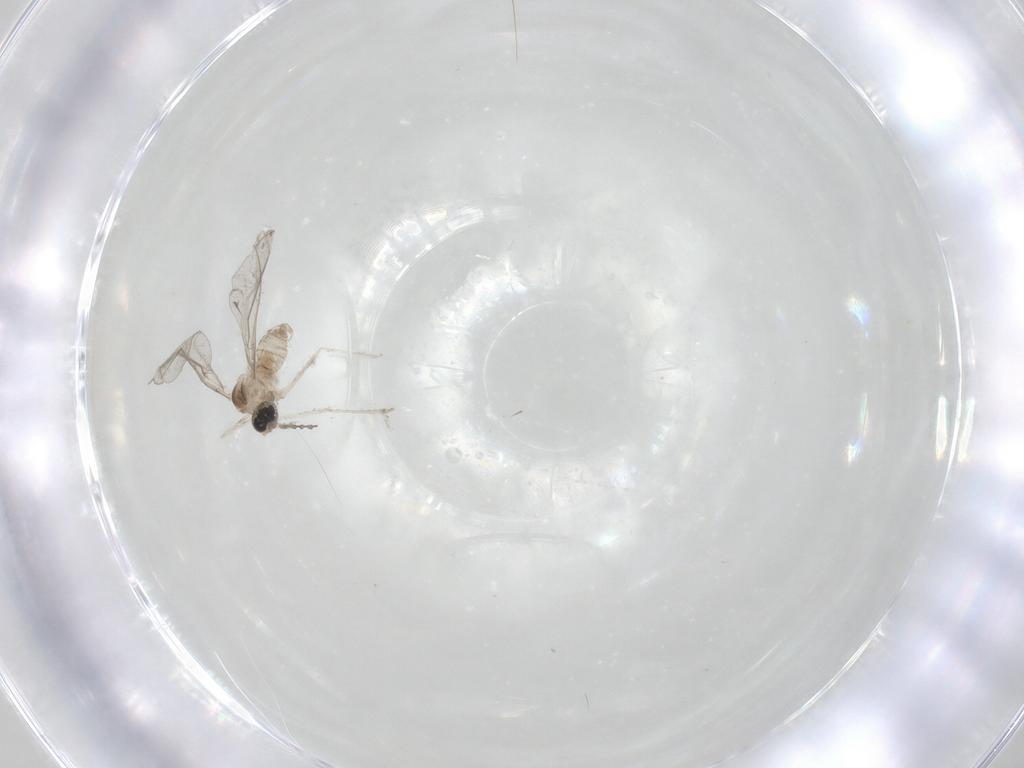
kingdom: Animalia
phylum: Arthropoda
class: Insecta
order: Diptera
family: Cecidomyiidae
